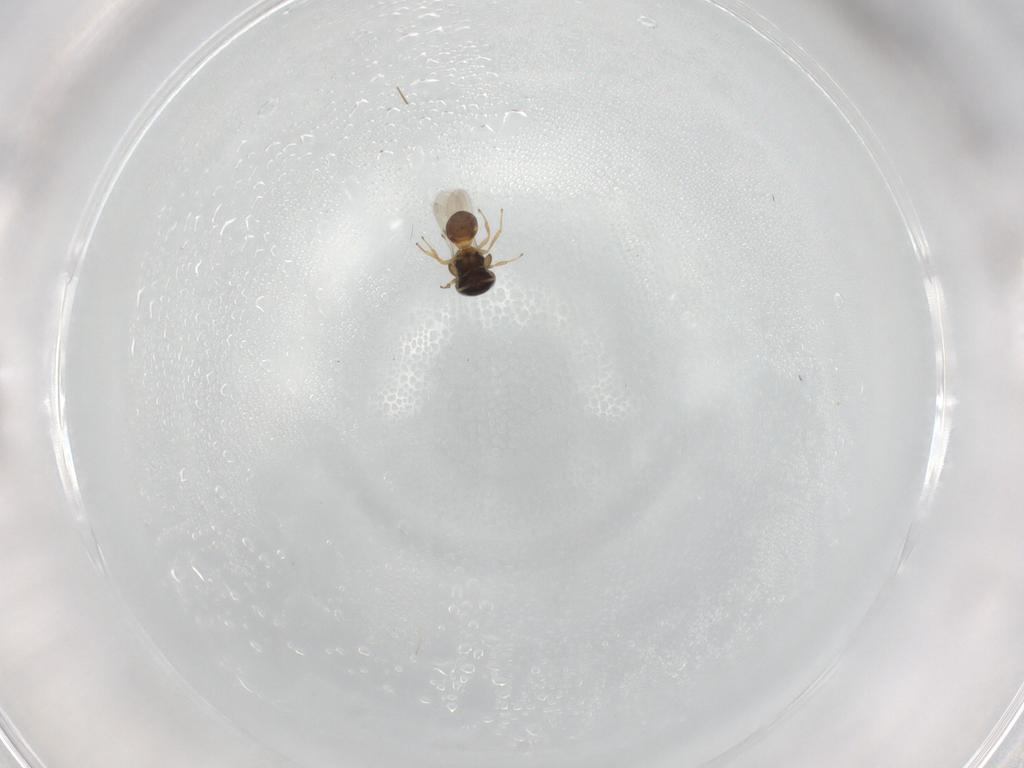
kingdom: Animalia
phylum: Arthropoda
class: Insecta
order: Hymenoptera
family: Scelionidae
